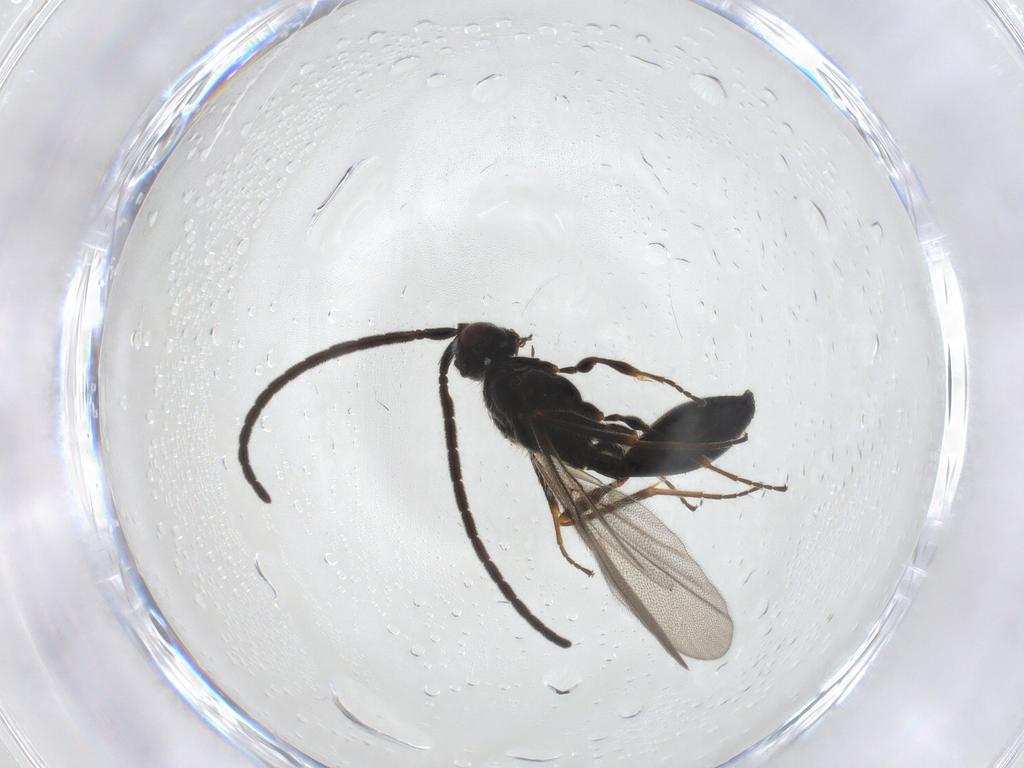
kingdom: Animalia
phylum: Arthropoda
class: Insecta
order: Hymenoptera
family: Diapriidae
